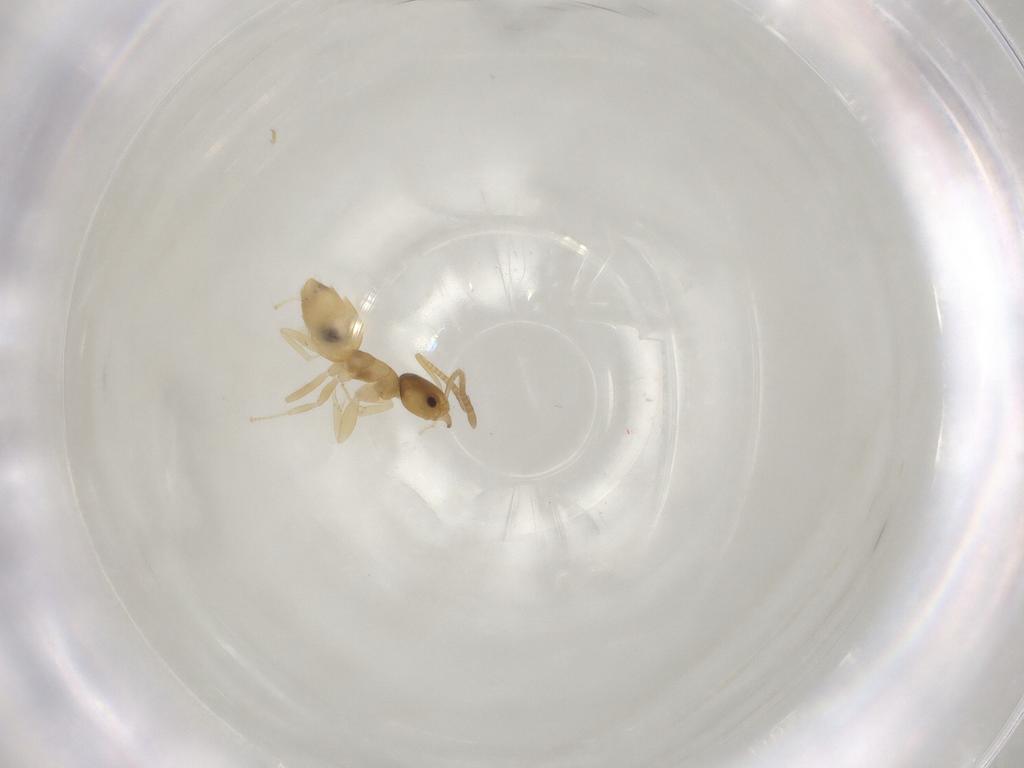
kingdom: Animalia
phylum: Arthropoda
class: Insecta
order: Hymenoptera
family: Formicidae
